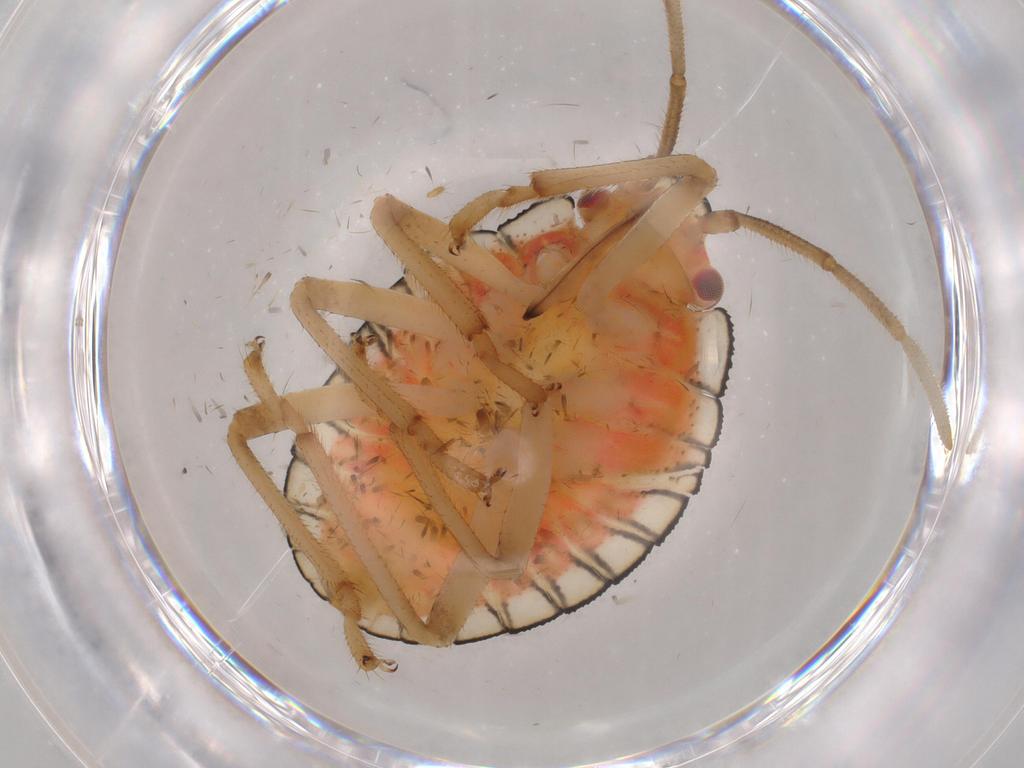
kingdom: Animalia
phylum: Arthropoda
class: Insecta
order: Hemiptera
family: Pentatomidae
